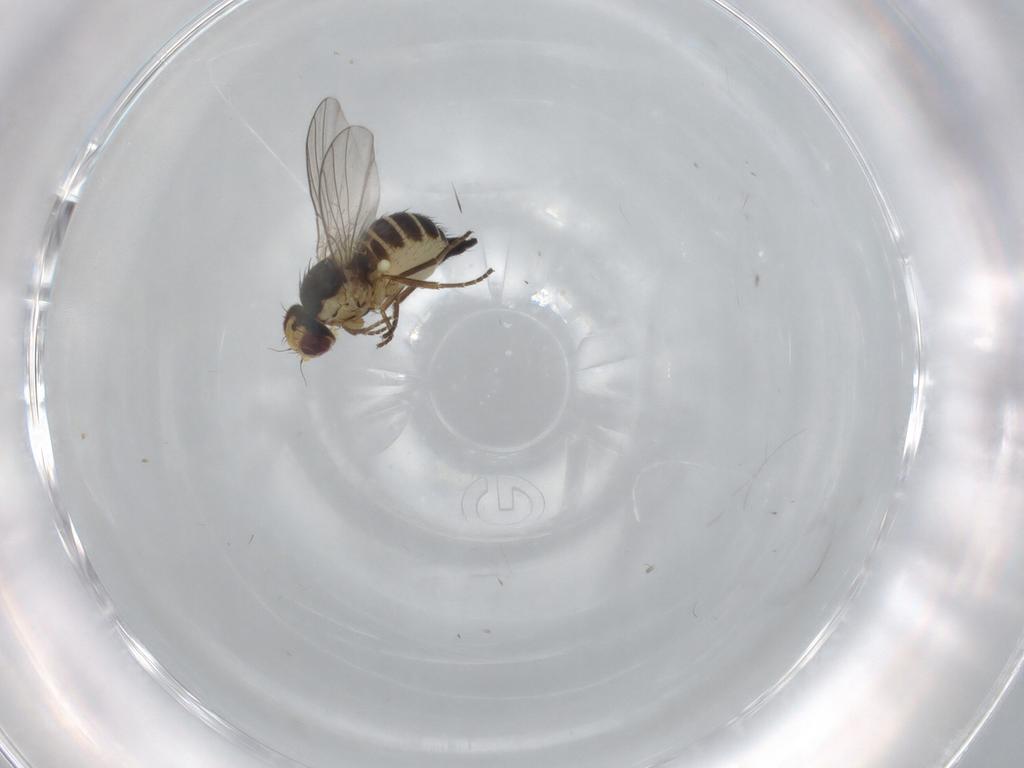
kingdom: Animalia
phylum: Arthropoda
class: Insecta
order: Diptera
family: Agromyzidae
